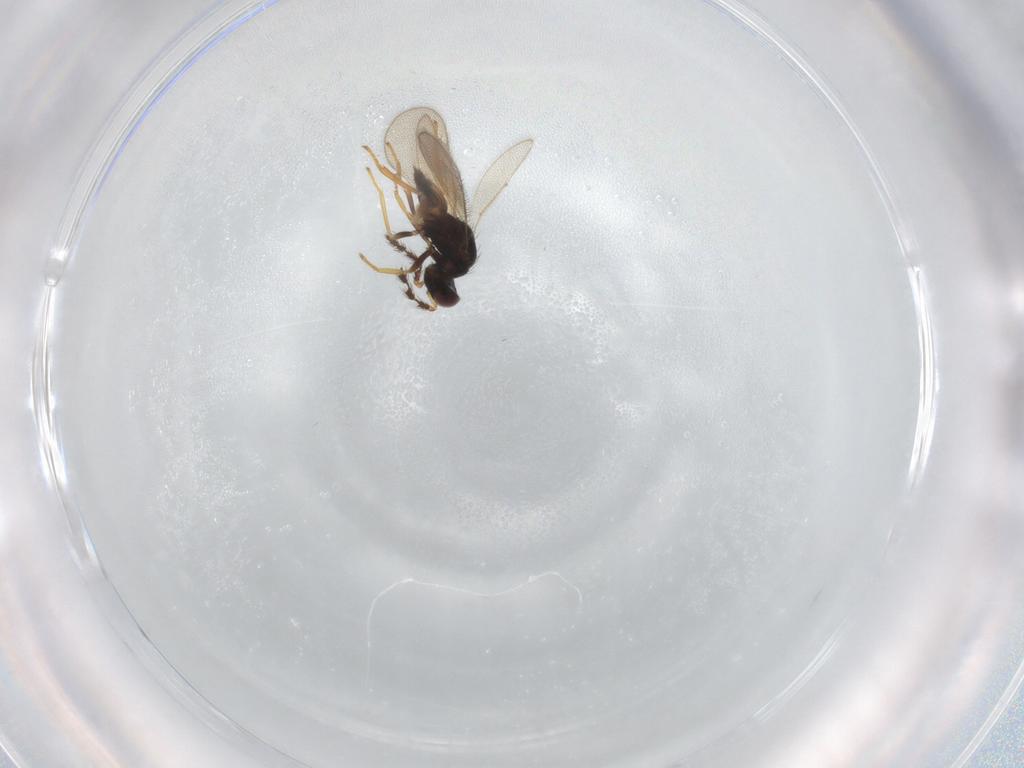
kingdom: Animalia
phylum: Arthropoda
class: Insecta
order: Hymenoptera
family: Eulophidae
